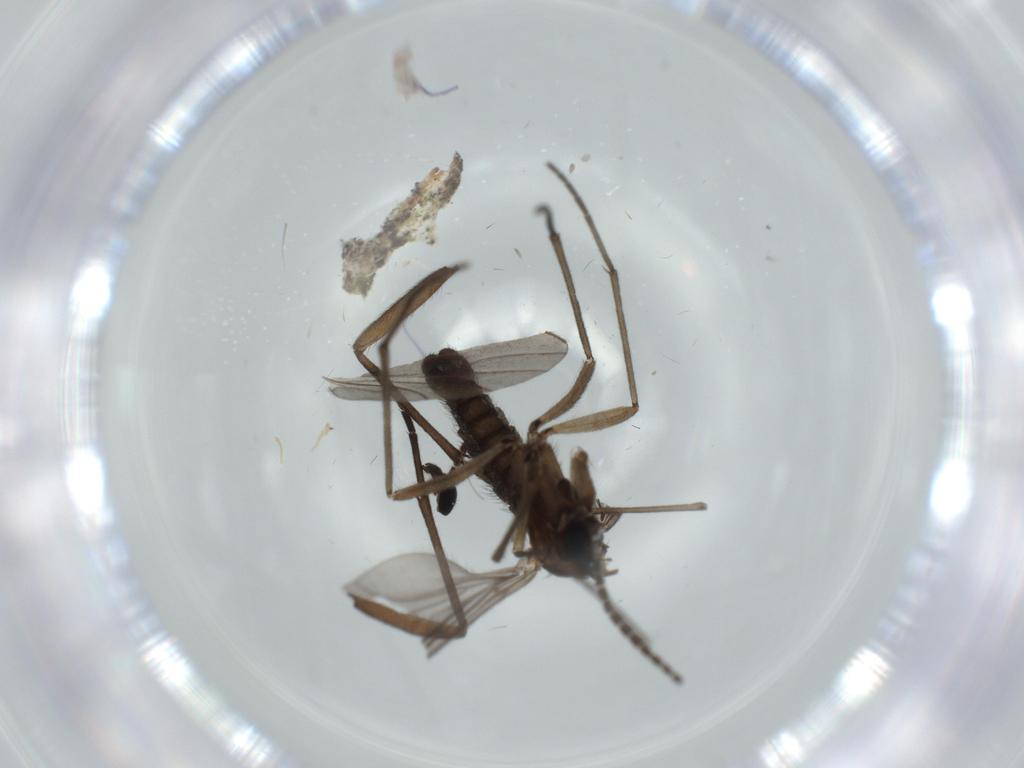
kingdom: Animalia
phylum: Arthropoda
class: Insecta
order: Diptera
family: Sciaridae
